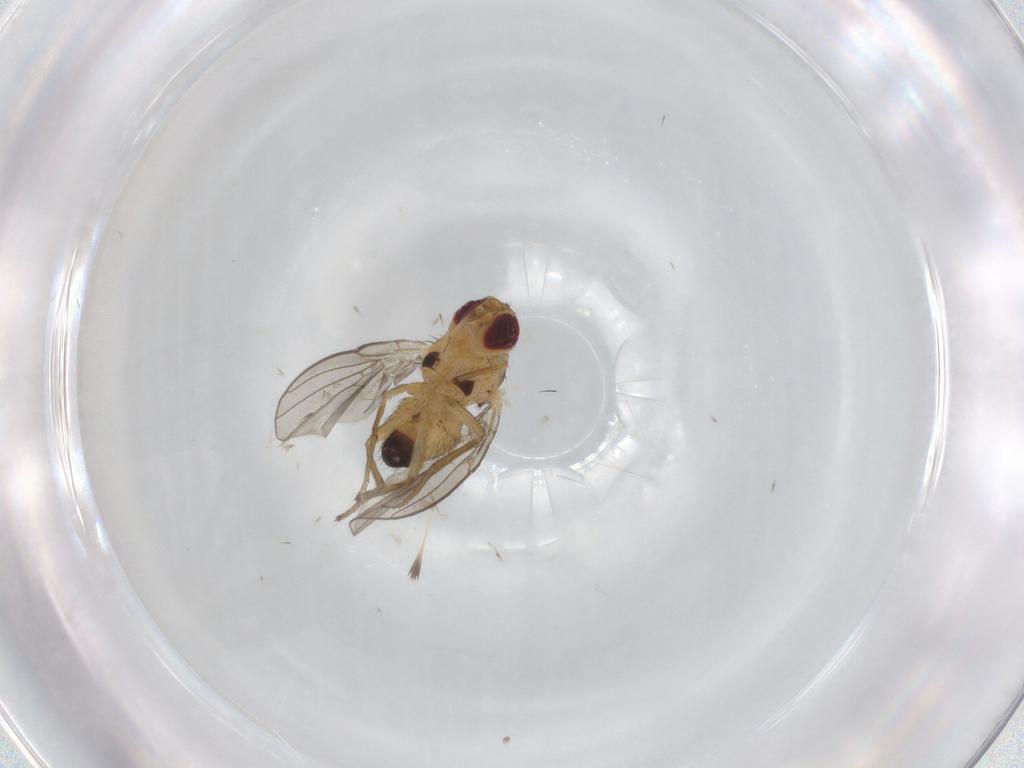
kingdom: Animalia
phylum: Arthropoda
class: Insecta
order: Diptera
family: Agromyzidae
